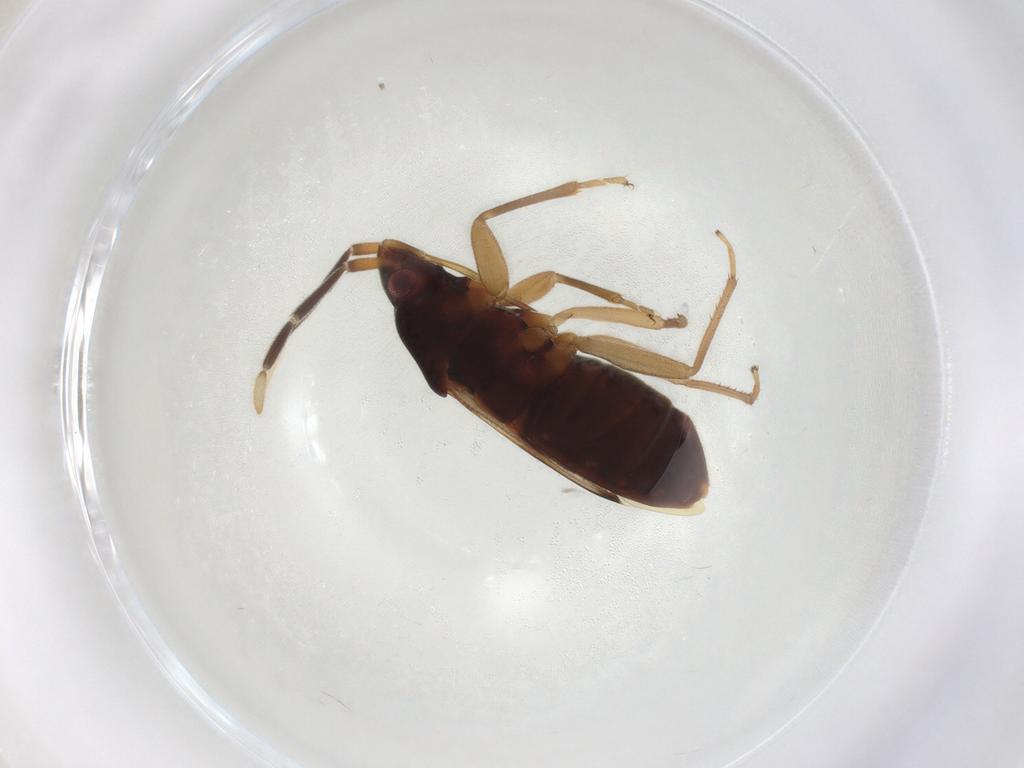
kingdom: Animalia
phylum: Arthropoda
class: Insecta
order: Hemiptera
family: Rhyparochromidae
